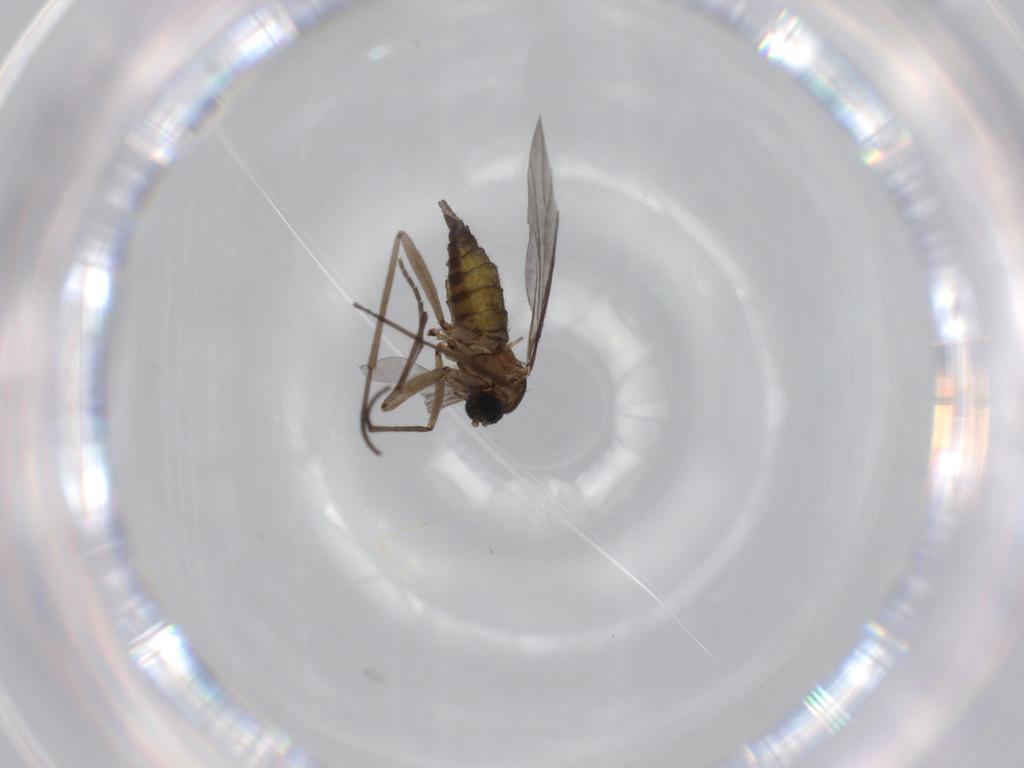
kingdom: Animalia
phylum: Arthropoda
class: Insecta
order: Diptera
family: Sciaridae
